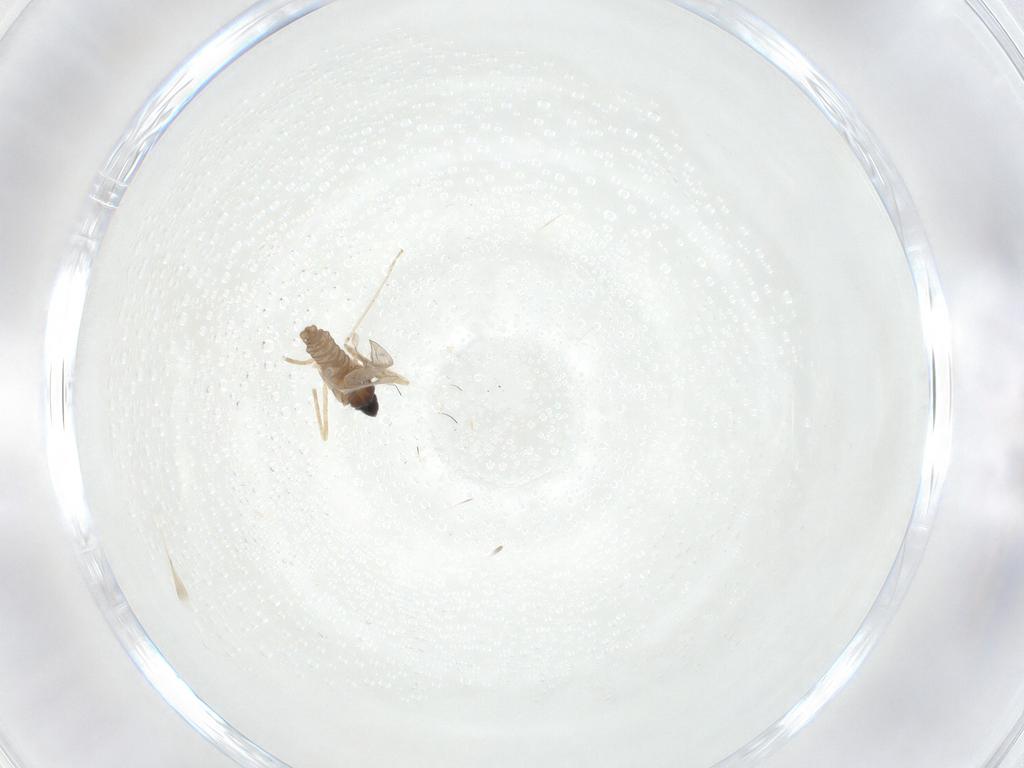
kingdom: Animalia
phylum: Arthropoda
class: Insecta
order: Diptera
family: Cecidomyiidae
